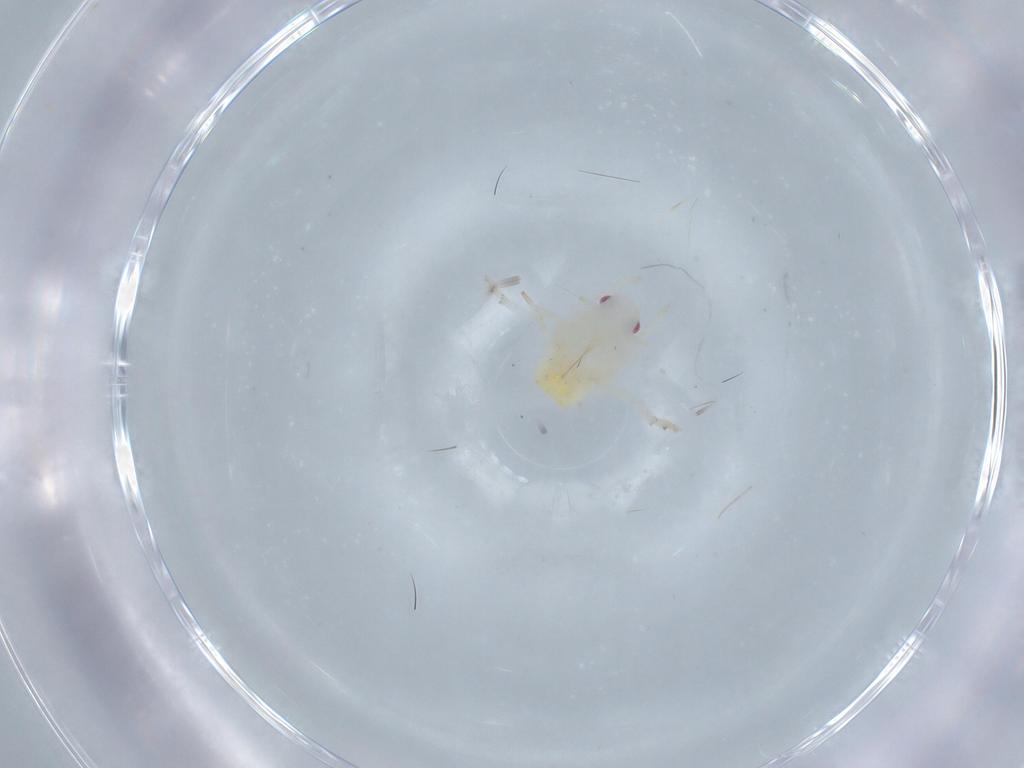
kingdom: Animalia
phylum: Arthropoda
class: Insecta
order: Hemiptera
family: Flatidae
